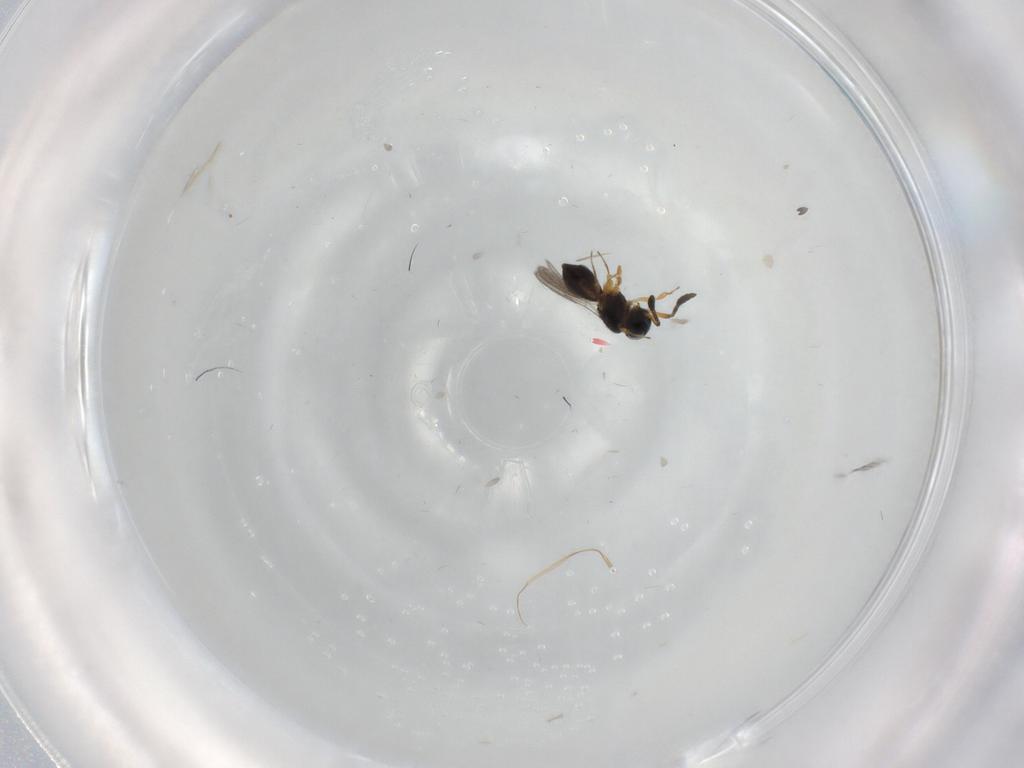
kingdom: Animalia
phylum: Arthropoda
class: Insecta
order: Hymenoptera
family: Scelionidae
